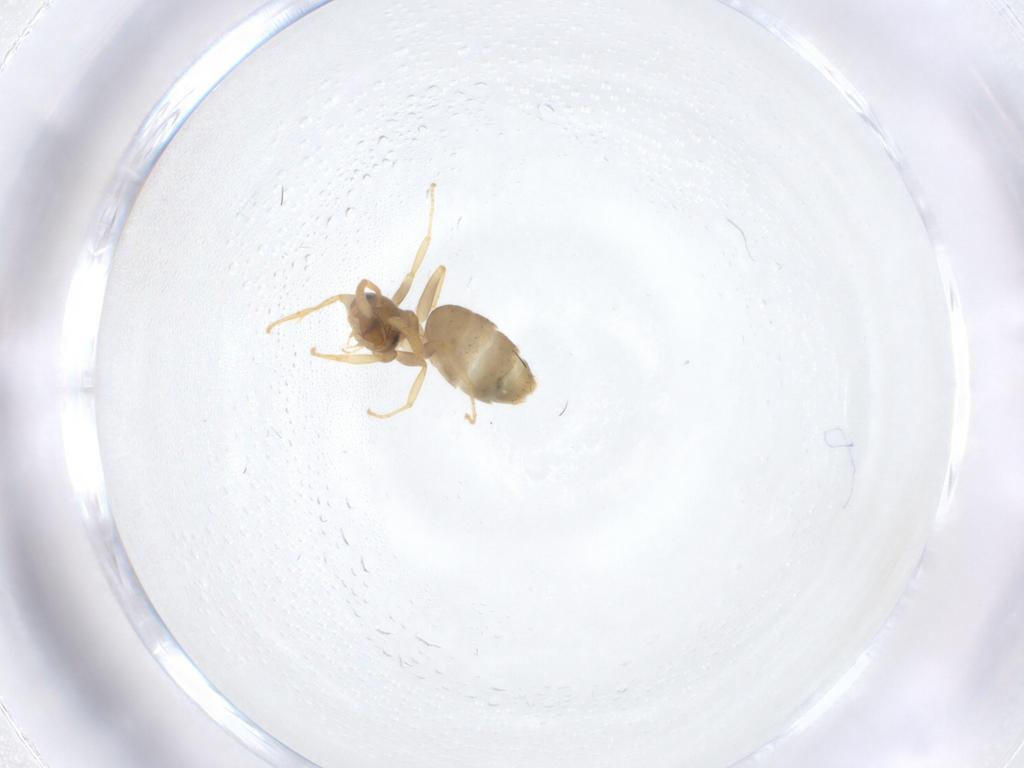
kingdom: Animalia
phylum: Arthropoda
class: Insecta
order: Hymenoptera
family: Formicidae
